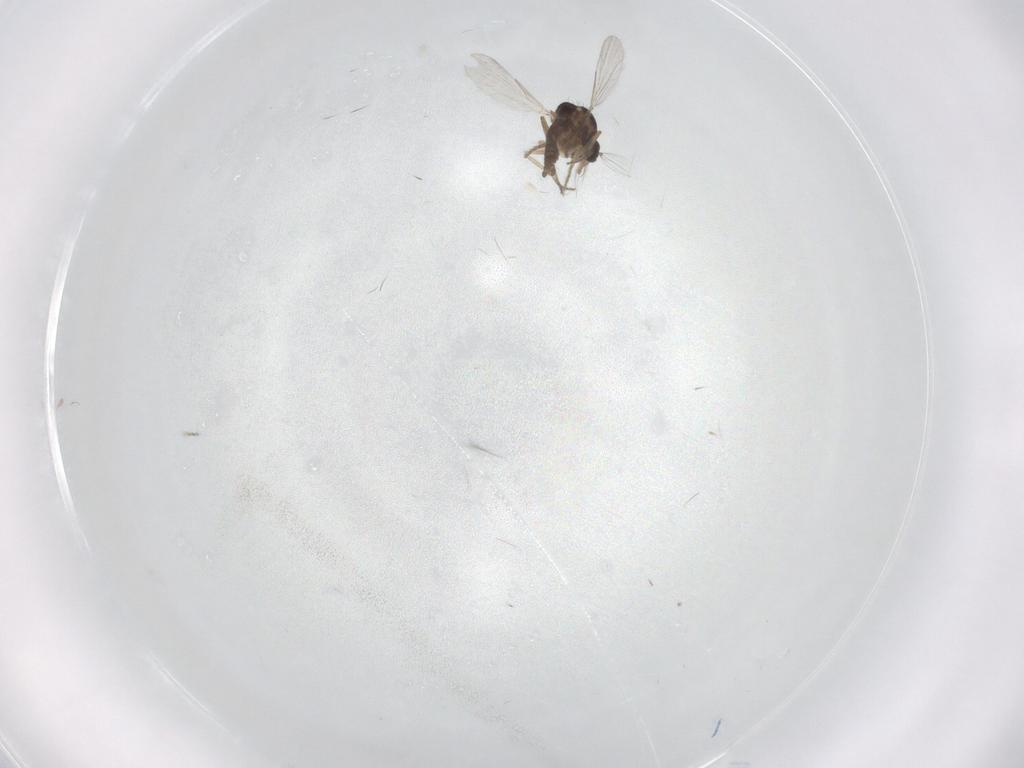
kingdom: Animalia
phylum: Arthropoda
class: Insecta
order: Diptera
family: Ceratopogonidae
